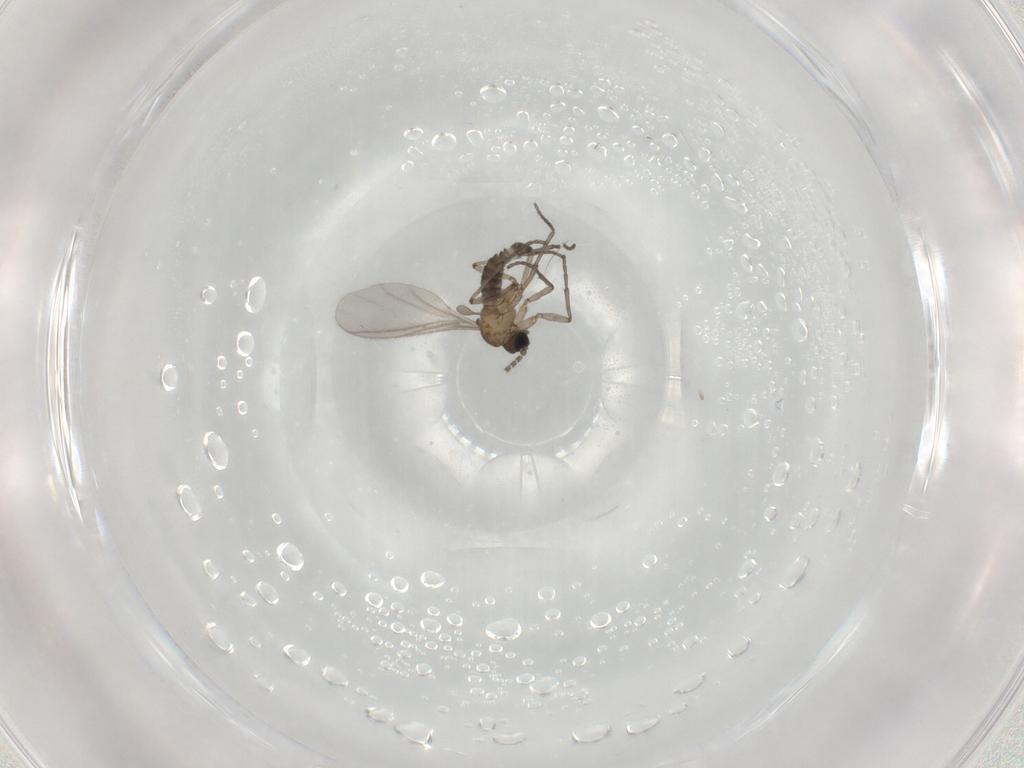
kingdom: Animalia
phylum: Arthropoda
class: Insecta
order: Diptera
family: Sciaridae
